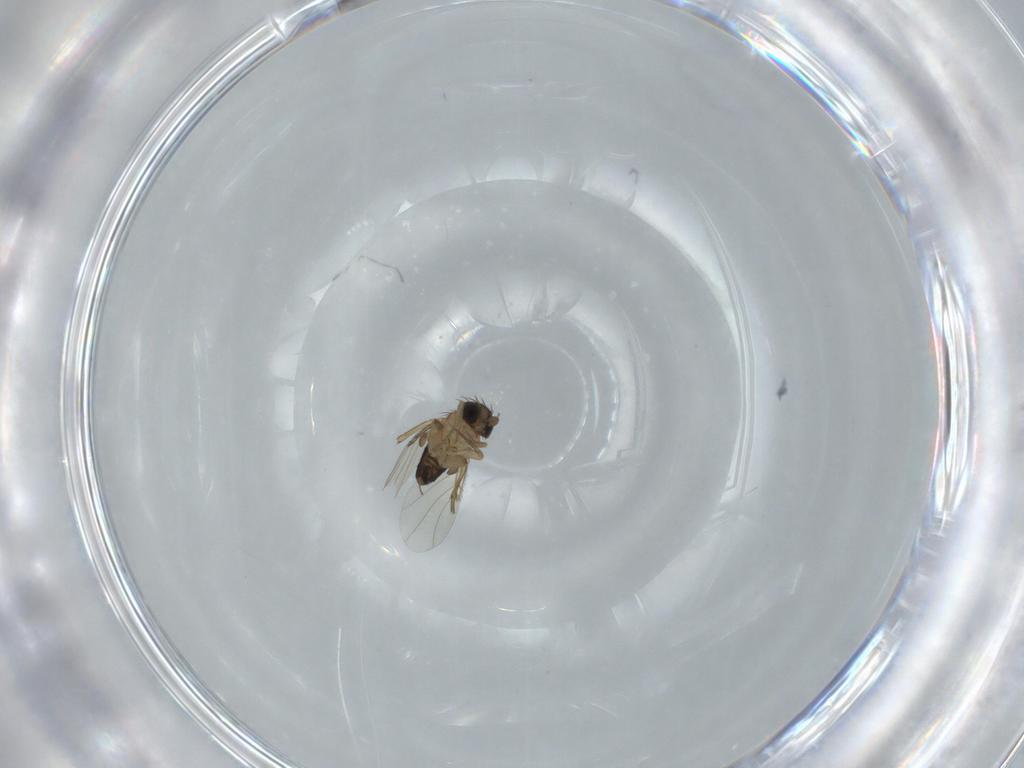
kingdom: Animalia
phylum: Arthropoda
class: Insecta
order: Diptera
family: Phoridae
